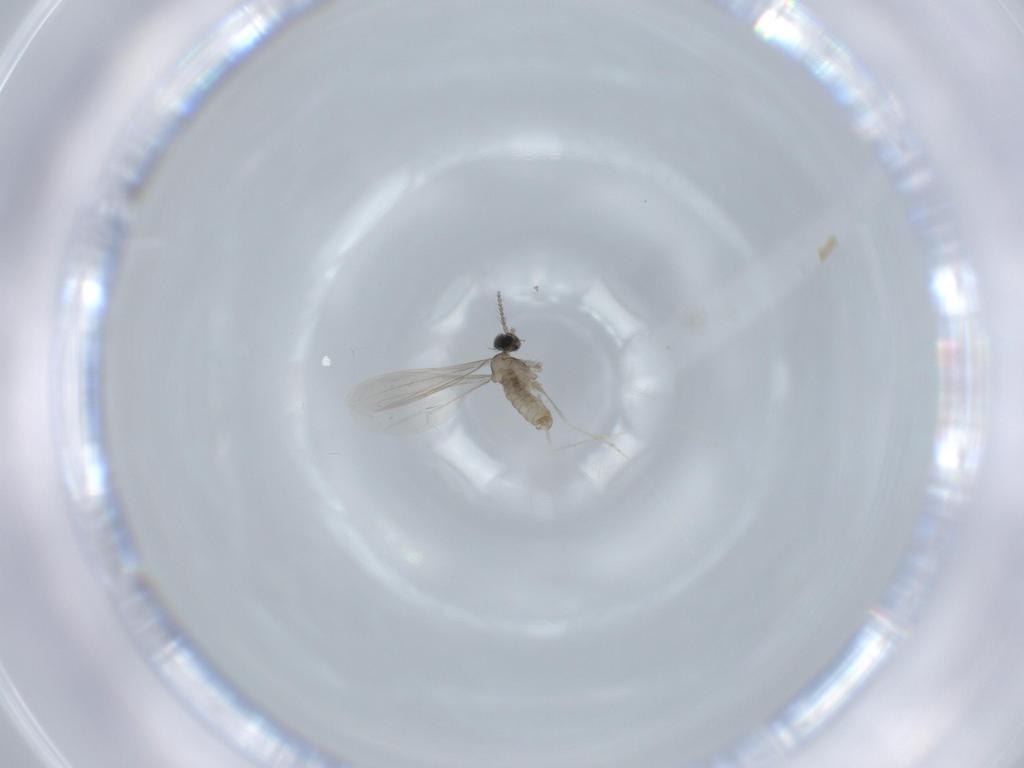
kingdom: Animalia
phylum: Arthropoda
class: Insecta
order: Diptera
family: Cecidomyiidae
